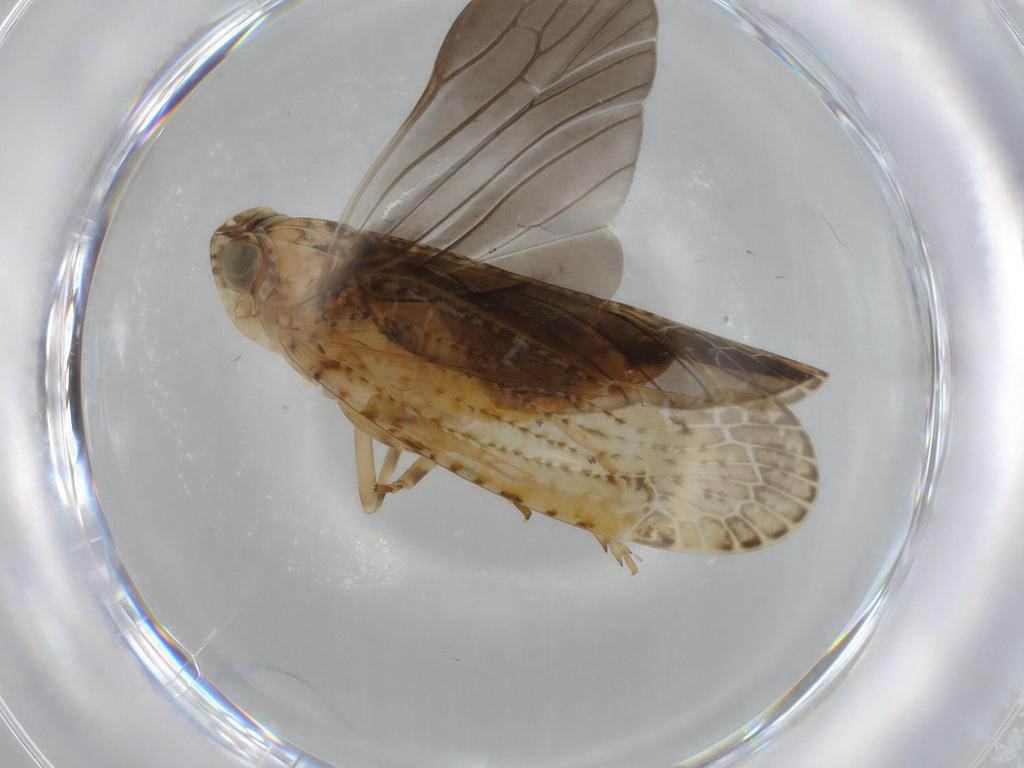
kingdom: Animalia
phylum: Arthropoda
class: Insecta
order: Hemiptera
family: Achilidae
